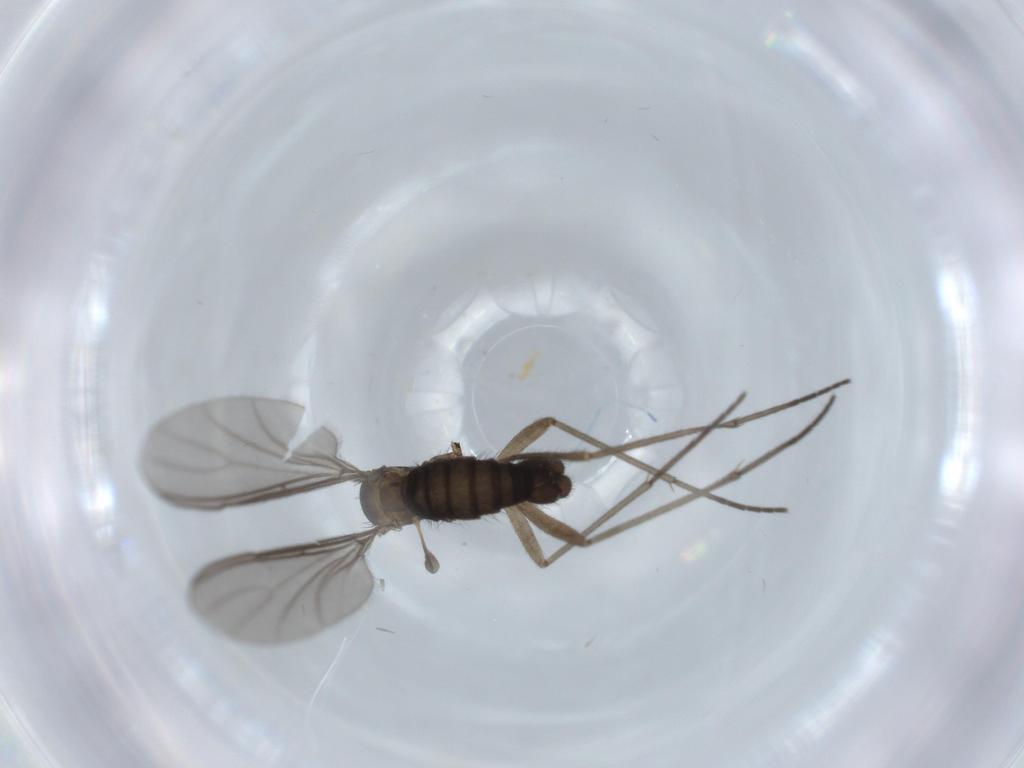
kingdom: Animalia
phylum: Arthropoda
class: Insecta
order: Diptera
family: Sciaridae
